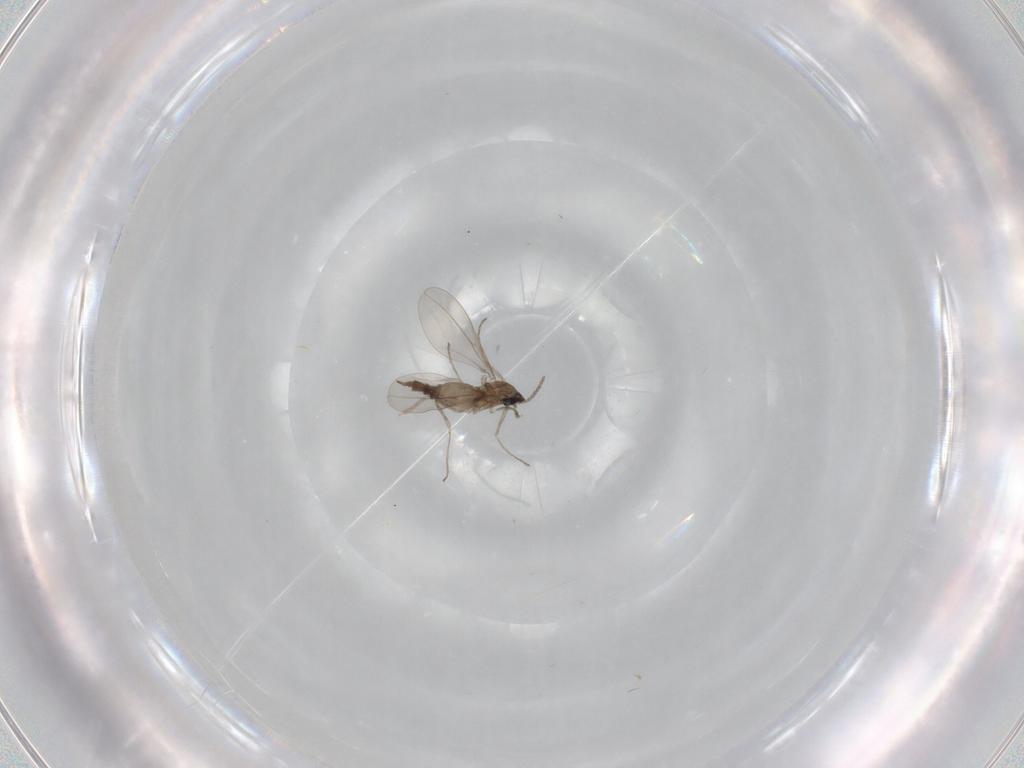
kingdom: Animalia
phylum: Arthropoda
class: Insecta
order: Diptera
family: Cecidomyiidae
